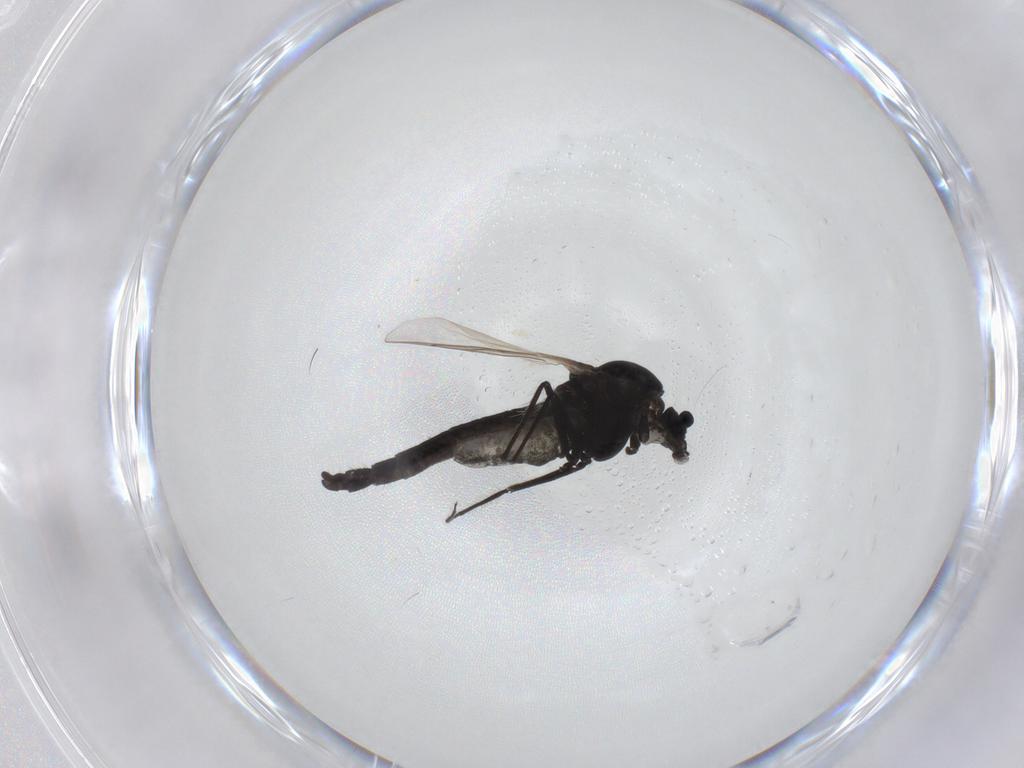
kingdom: Animalia
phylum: Arthropoda
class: Insecta
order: Diptera
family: Chironomidae
